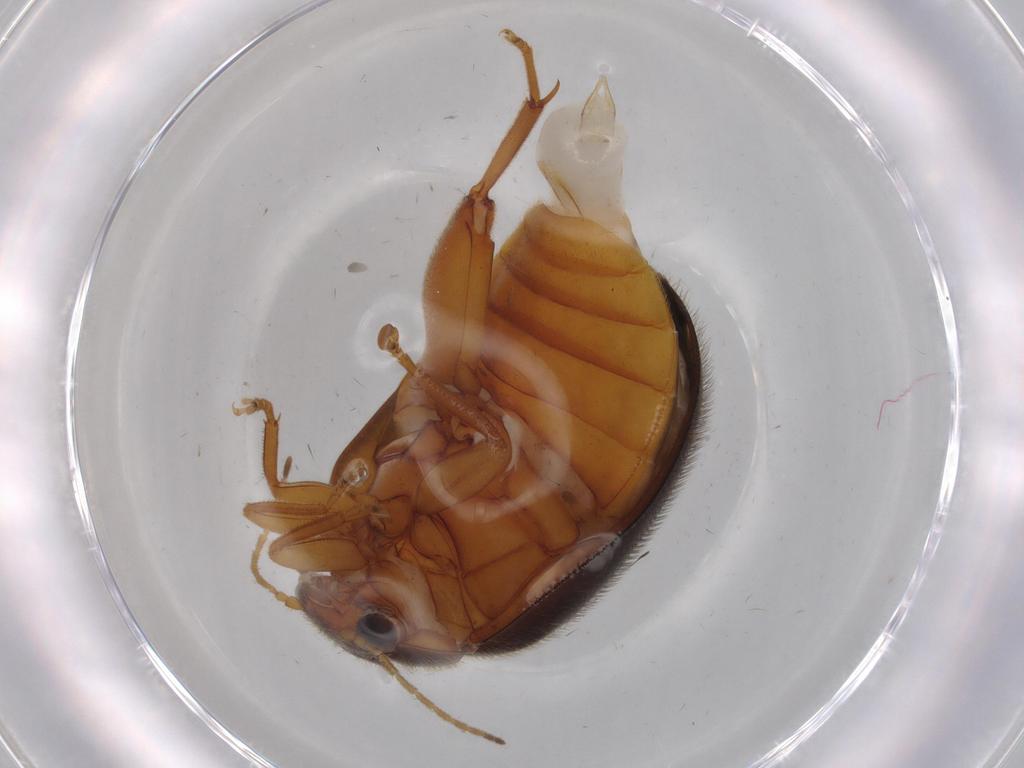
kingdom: Animalia
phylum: Arthropoda
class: Insecta
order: Coleoptera
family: Scirtidae
